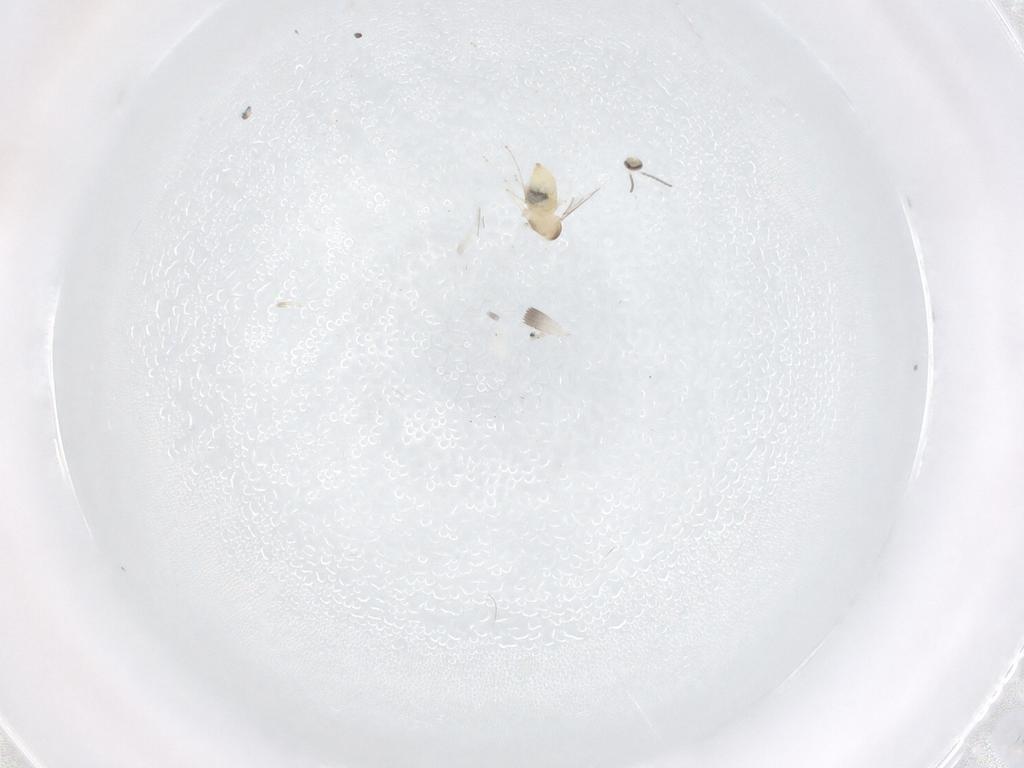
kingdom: Animalia
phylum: Arthropoda
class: Insecta
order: Diptera
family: Cecidomyiidae
